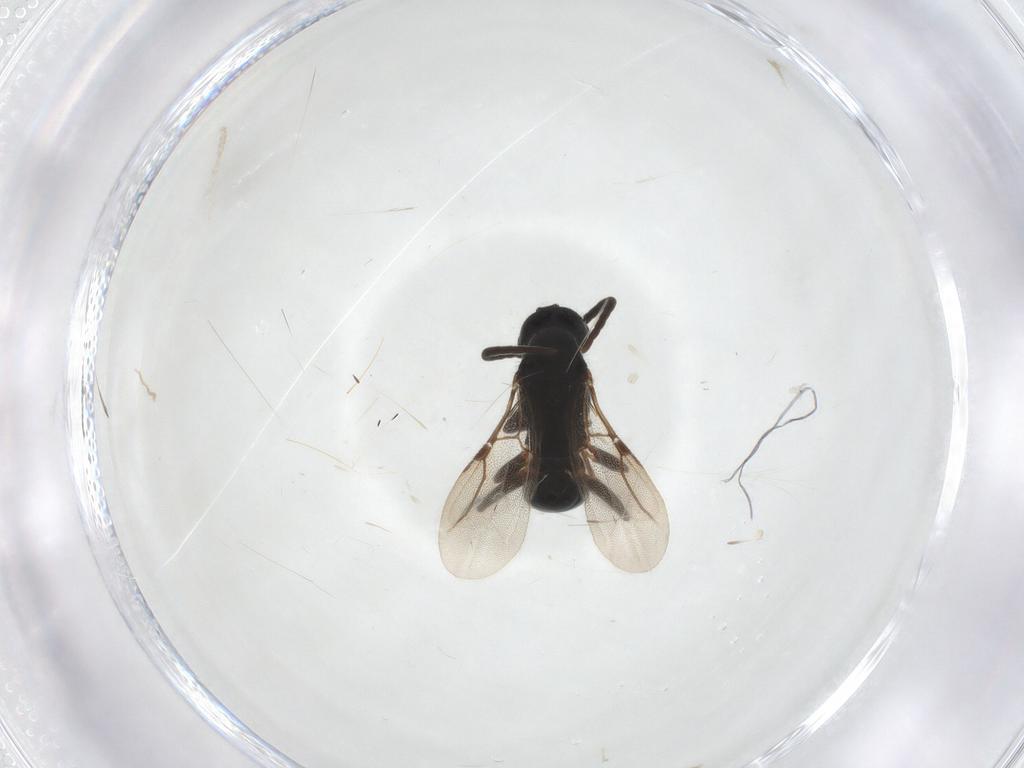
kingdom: Animalia
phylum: Arthropoda
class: Insecta
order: Hymenoptera
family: Bethylidae
